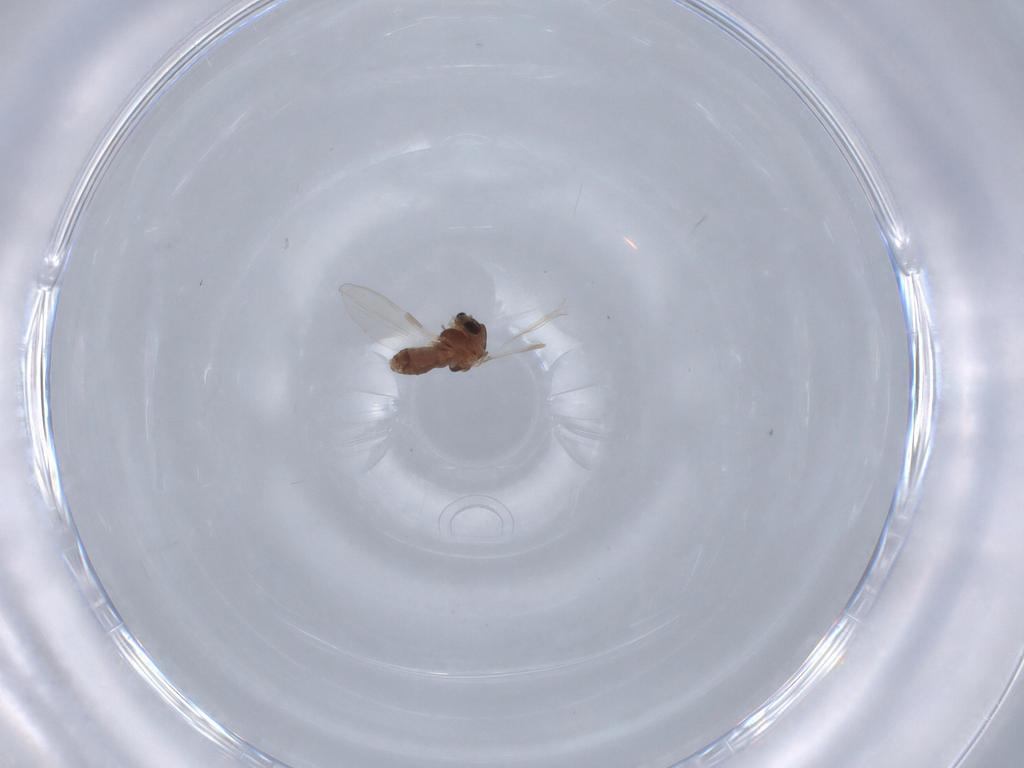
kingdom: Animalia
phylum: Arthropoda
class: Insecta
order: Diptera
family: Chironomidae
